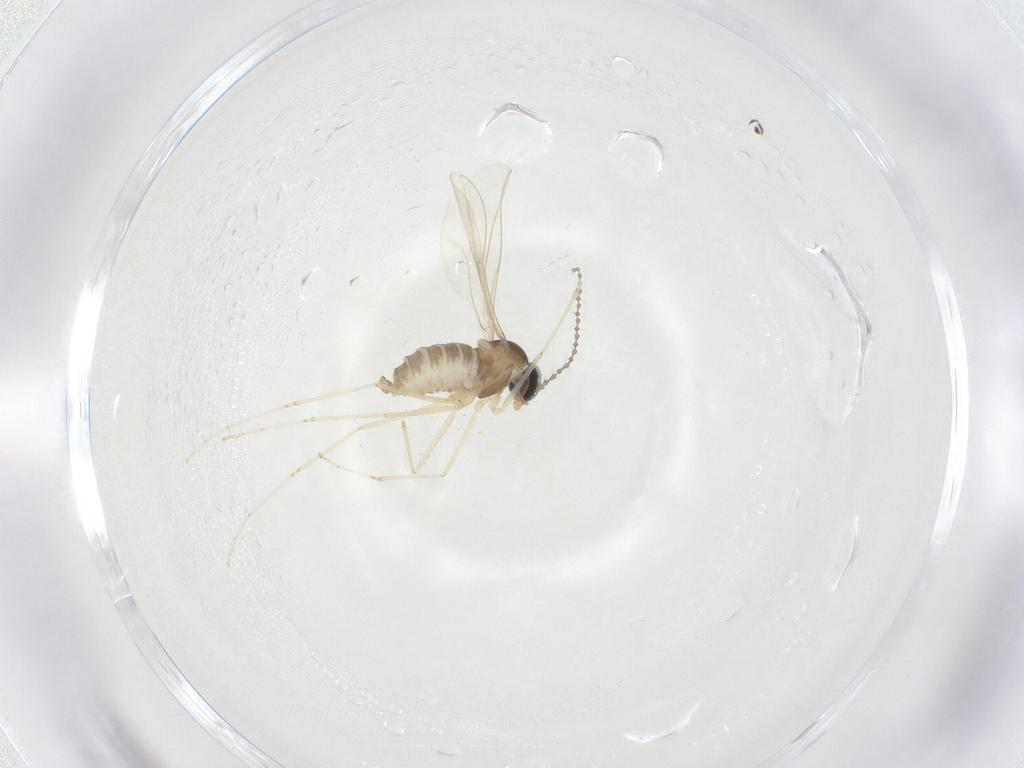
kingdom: Animalia
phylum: Arthropoda
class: Insecta
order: Diptera
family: Cecidomyiidae
